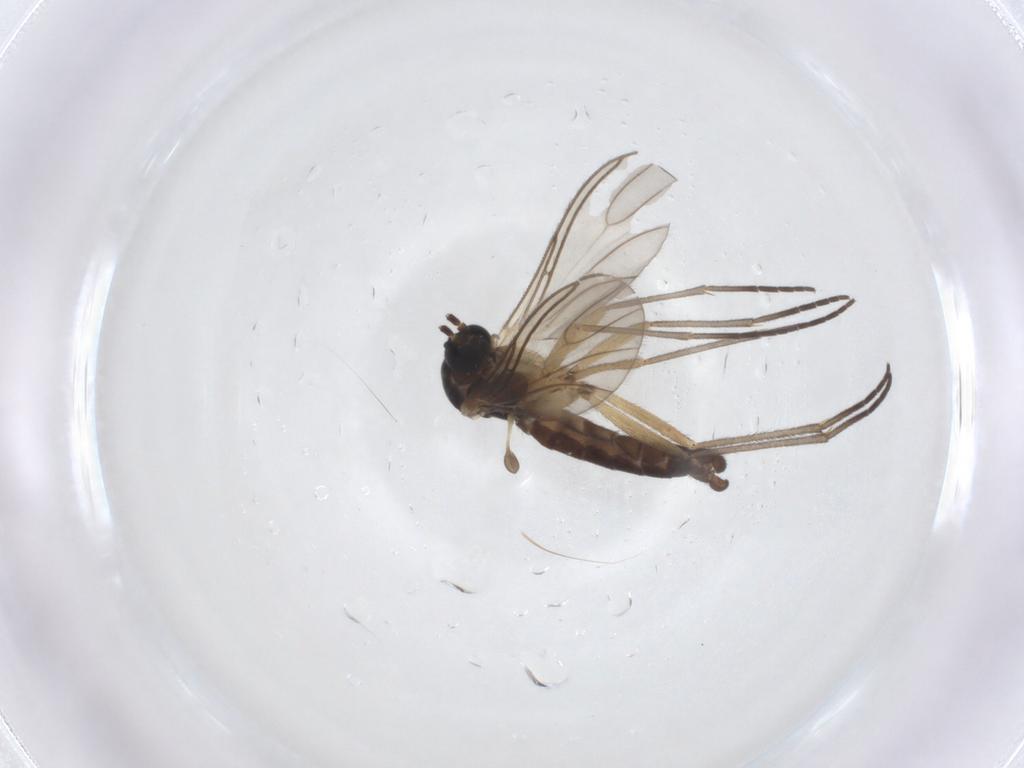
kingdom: Animalia
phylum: Arthropoda
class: Insecta
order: Diptera
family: Sciaridae
